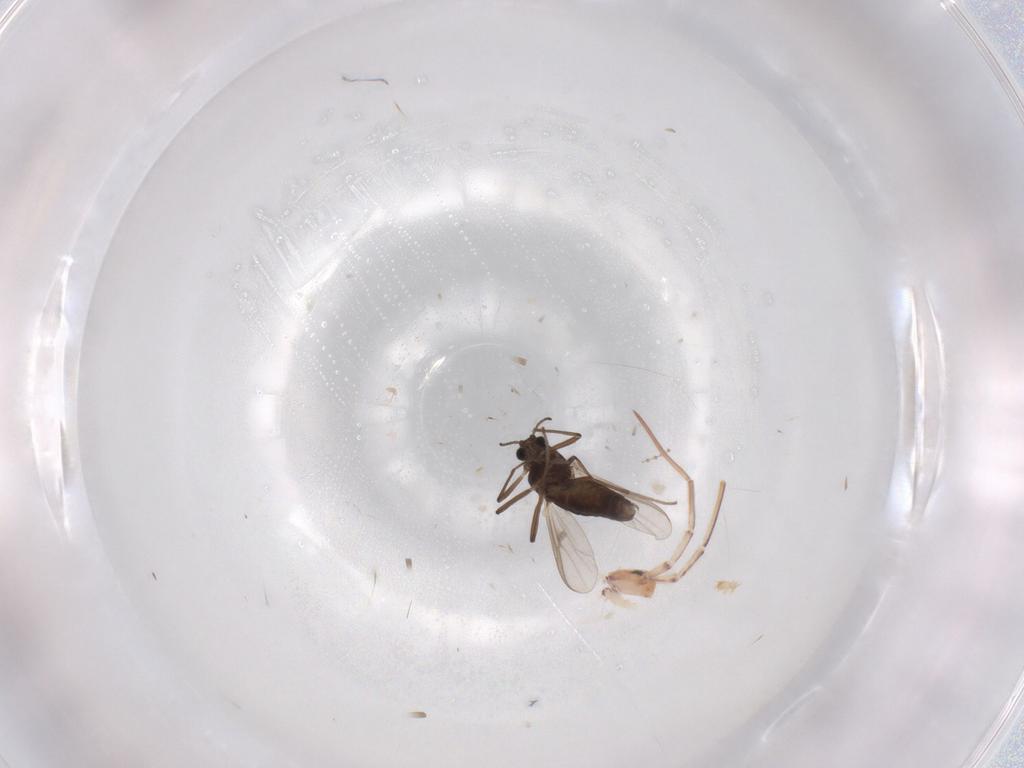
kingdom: Animalia
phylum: Arthropoda
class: Insecta
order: Diptera
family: Chironomidae
